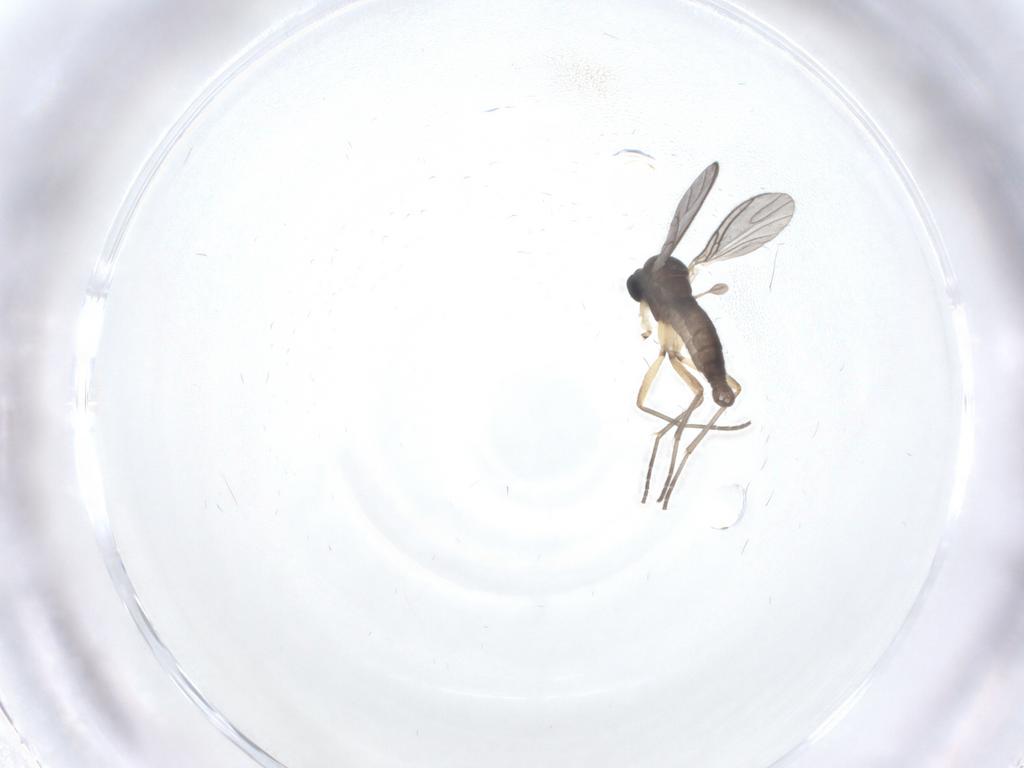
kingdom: Animalia
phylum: Arthropoda
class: Insecta
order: Diptera
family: Sciaridae
